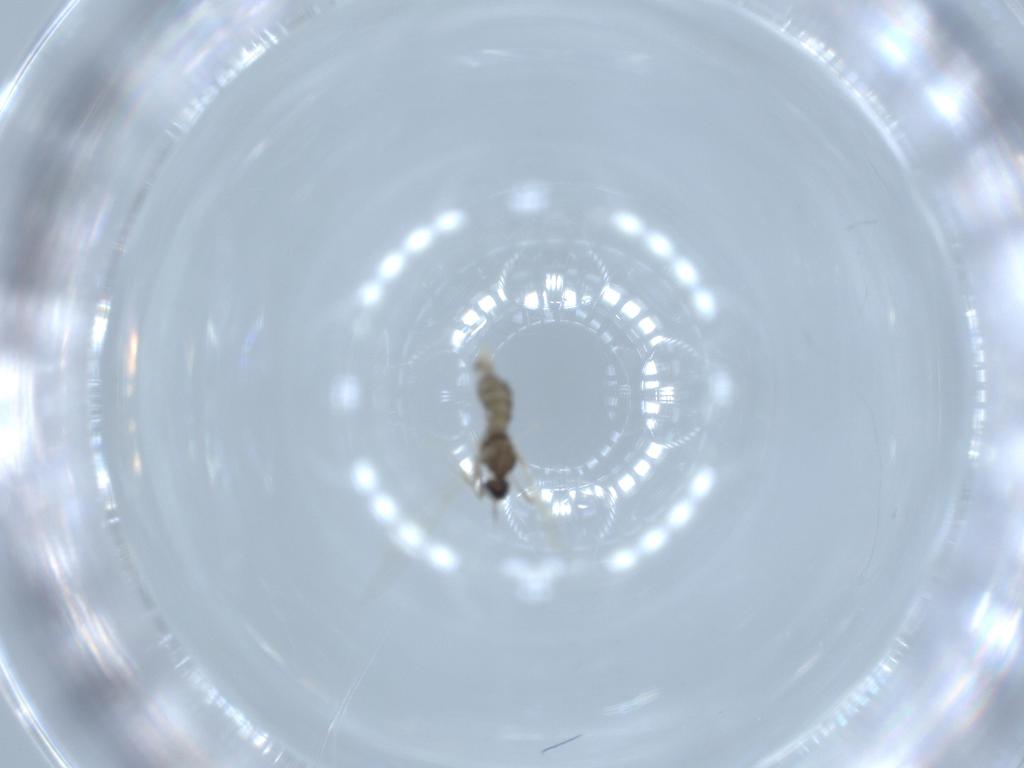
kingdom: Animalia
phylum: Arthropoda
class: Insecta
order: Diptera
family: Cecidomyiidae
